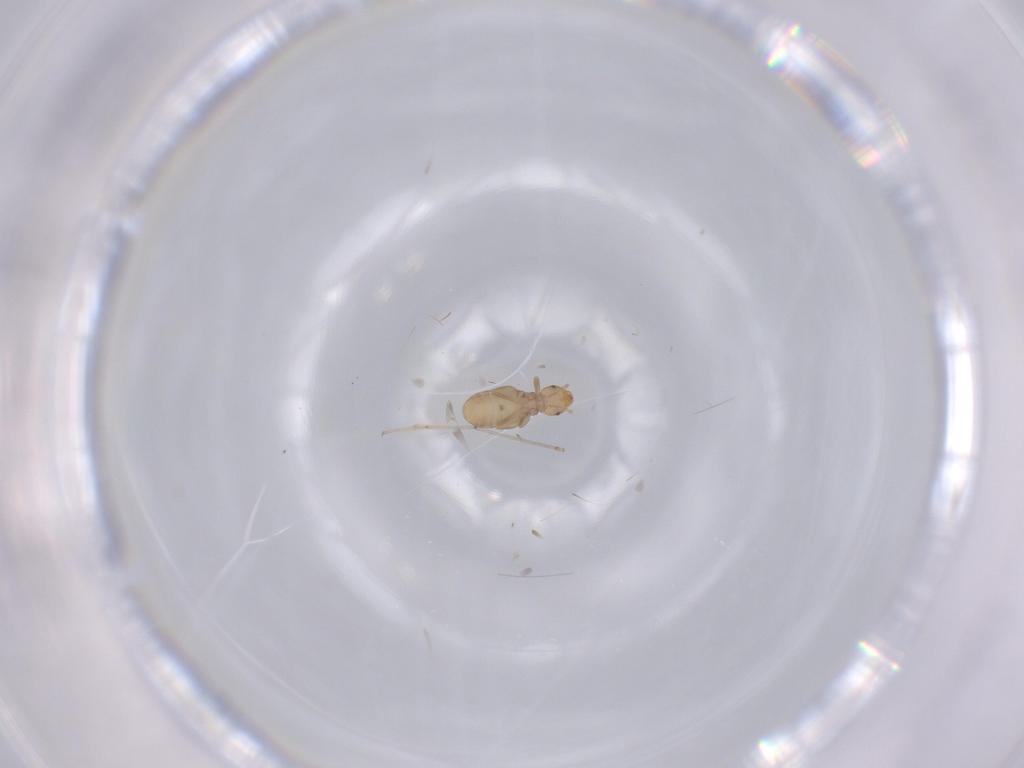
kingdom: Animalia
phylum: Arthropoda
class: Insecta
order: Psocodea
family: Liposcelididae
